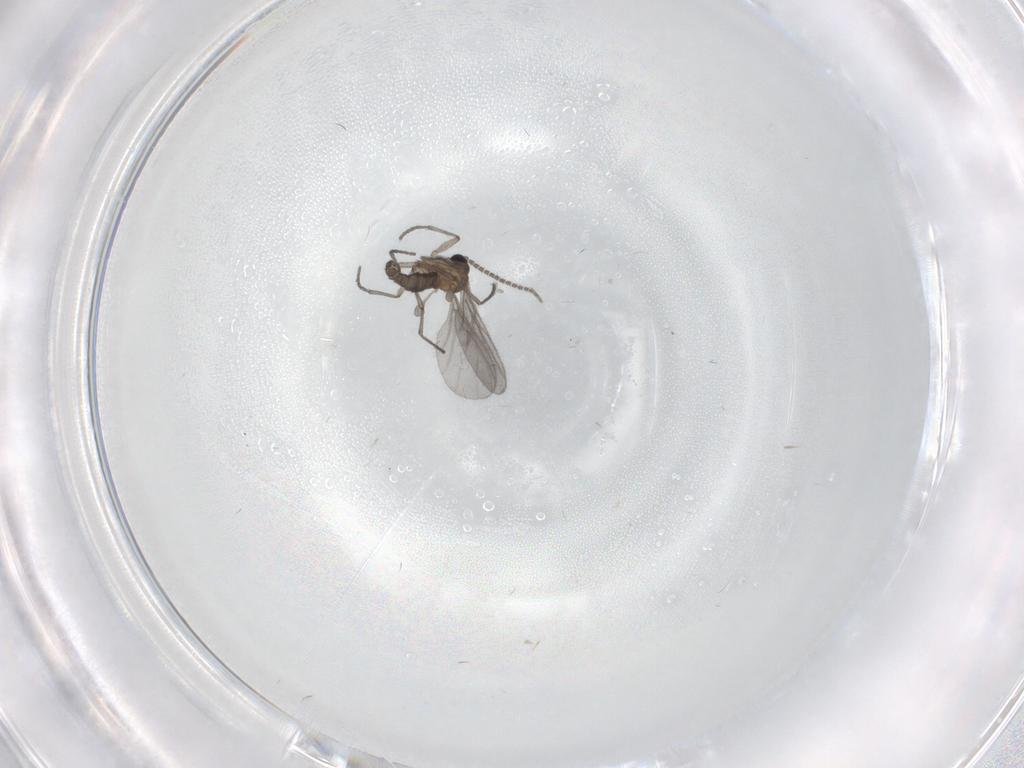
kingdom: Animalia
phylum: Arthropoda
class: Insecta
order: Diptera
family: Sciaridae
